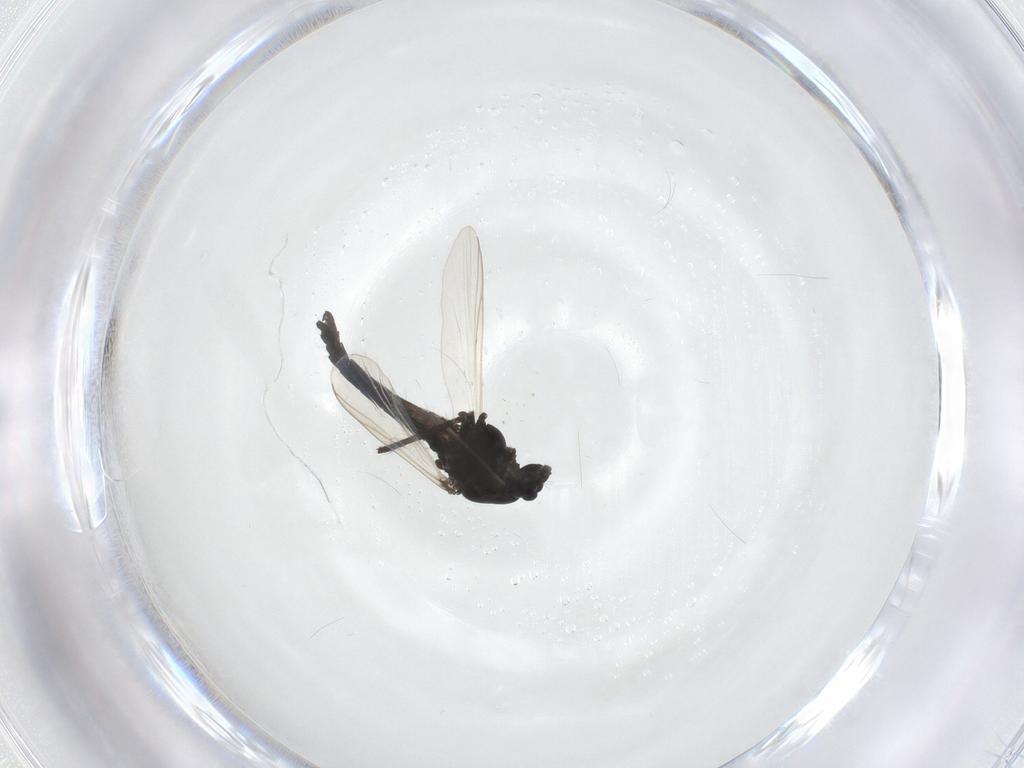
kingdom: Animalia
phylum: Arthropoda
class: Insecta
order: Diptera
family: Cecidomyiidae
